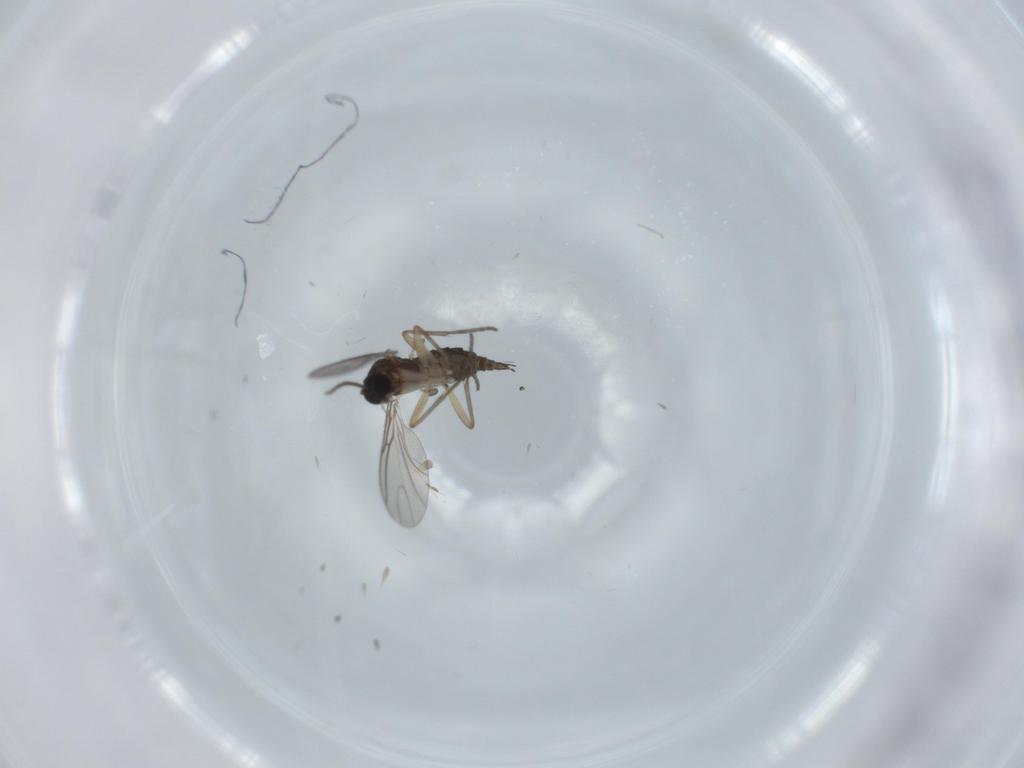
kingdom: Animalia
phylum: Arthropoda
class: Insecta
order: Diptera
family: Sciaridae
